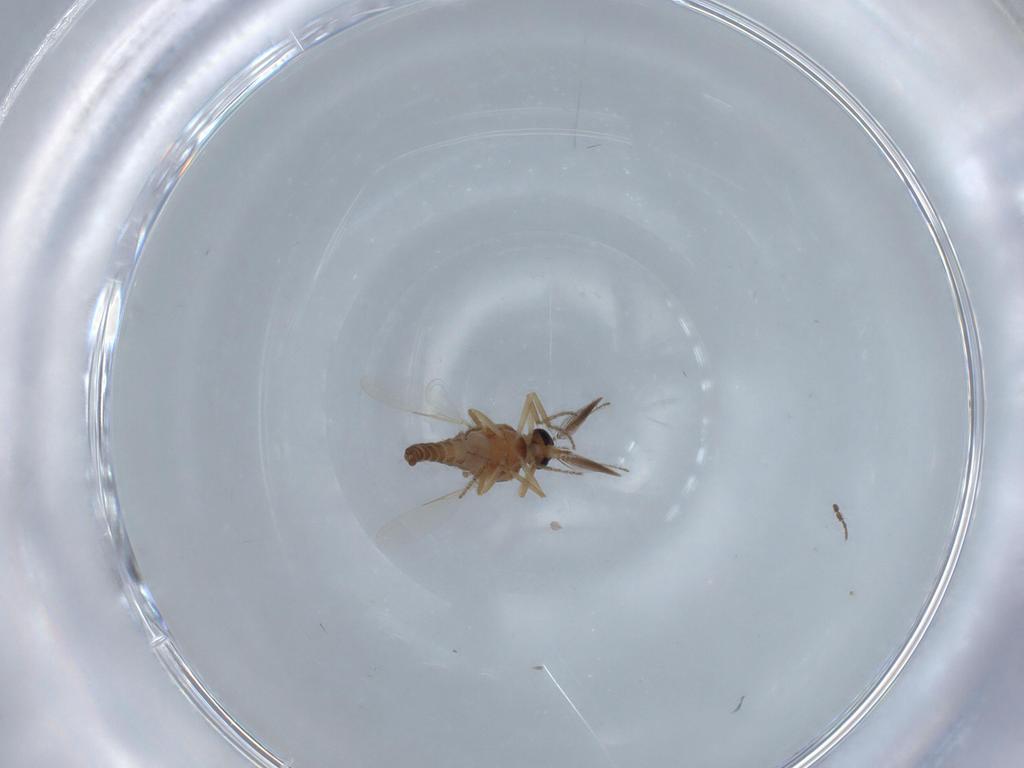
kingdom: Animalia
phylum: Arthropoda
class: Insecta
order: Diptera
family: Ceratopogonidae
